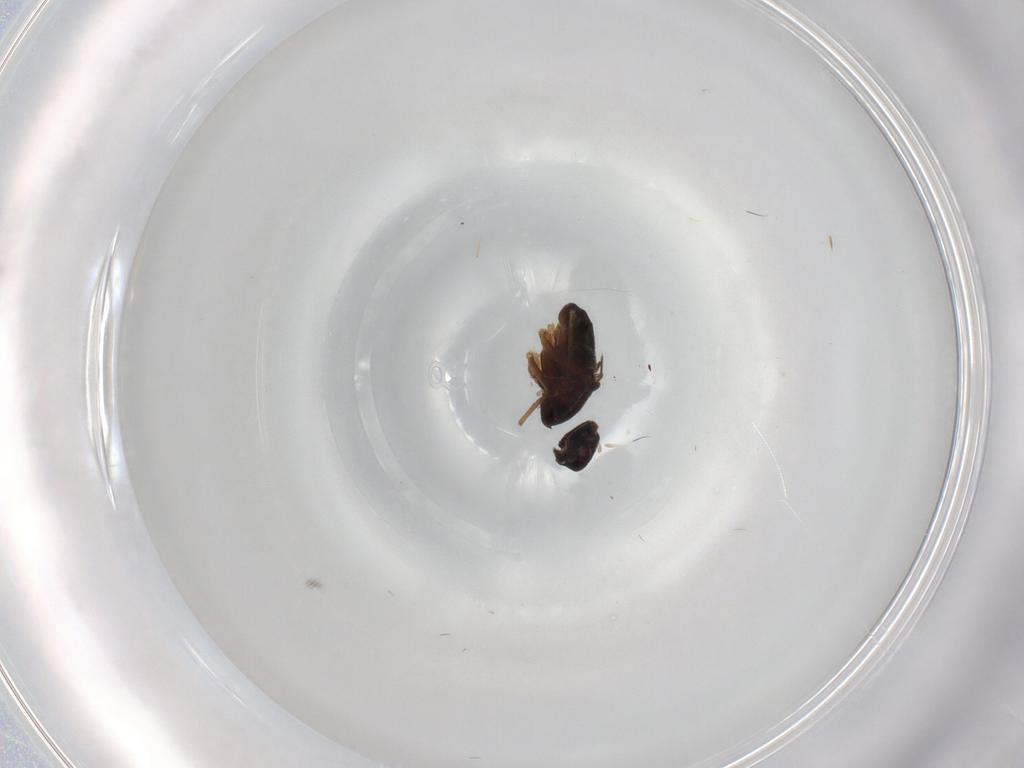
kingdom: Animalia
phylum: Arthropoda
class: Insecta
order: Diptera
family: Tabanidae
